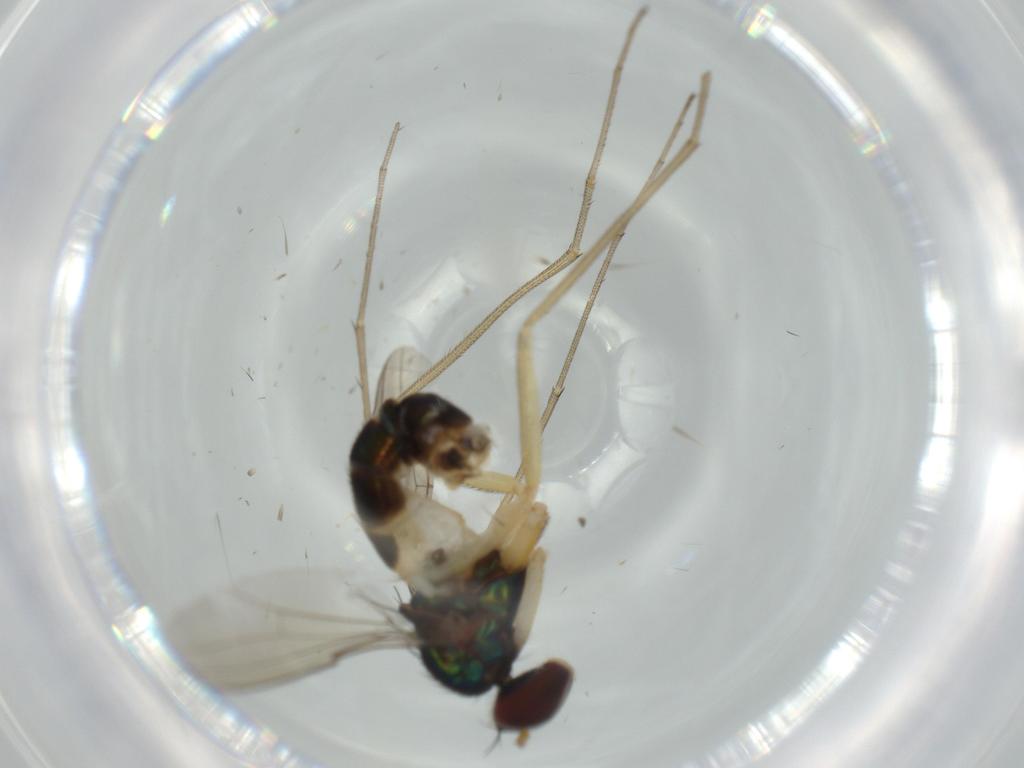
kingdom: Animalia
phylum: Arthropoda
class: Insecta
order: Diptera
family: Dolichopodidae
